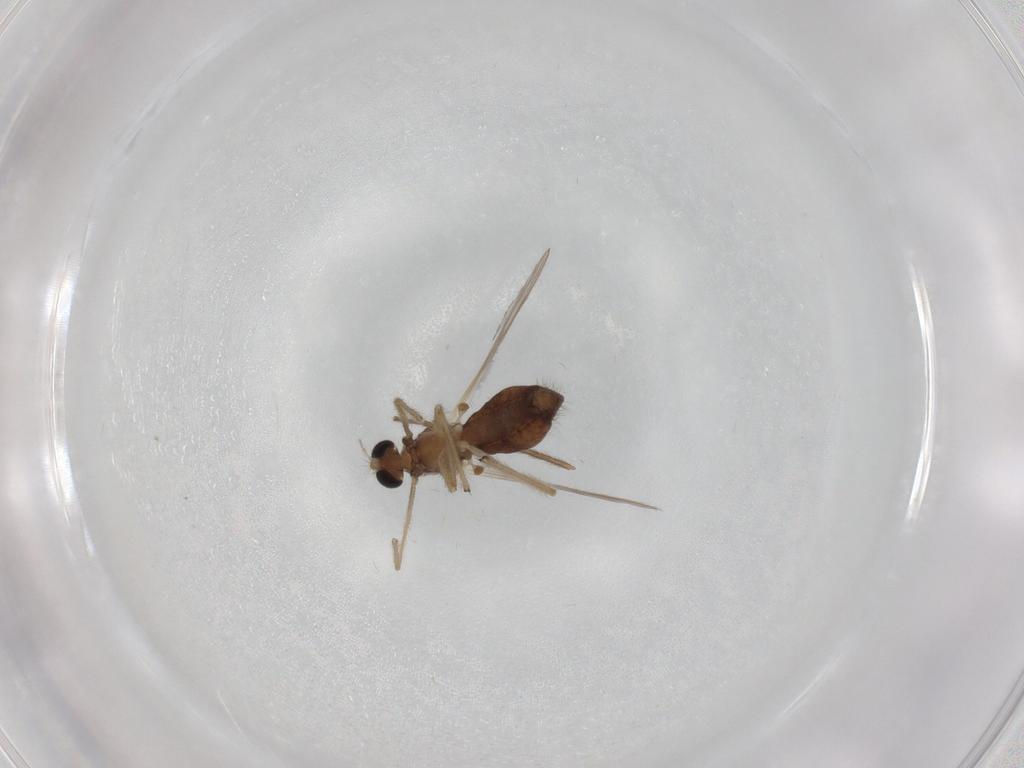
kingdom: Animalia
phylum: Arthropoda
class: Insecta
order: Diptera
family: Chironomidae
